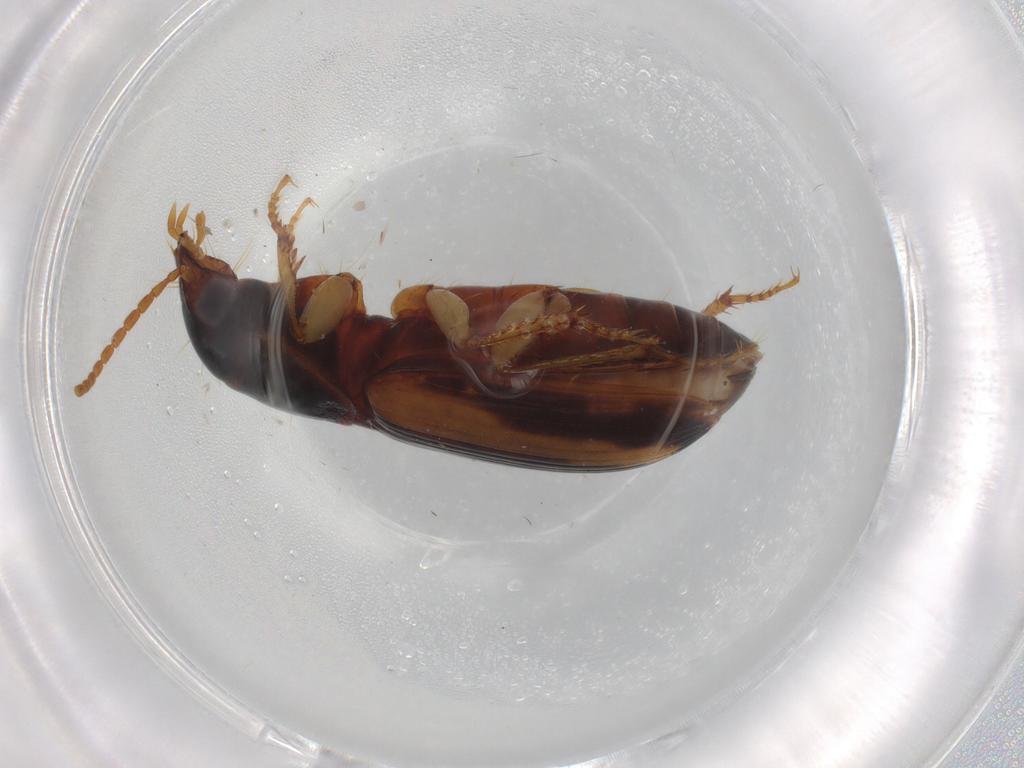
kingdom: Animalia
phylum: Arthropoda
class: Insecta
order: Coleoptera
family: Carabidae
